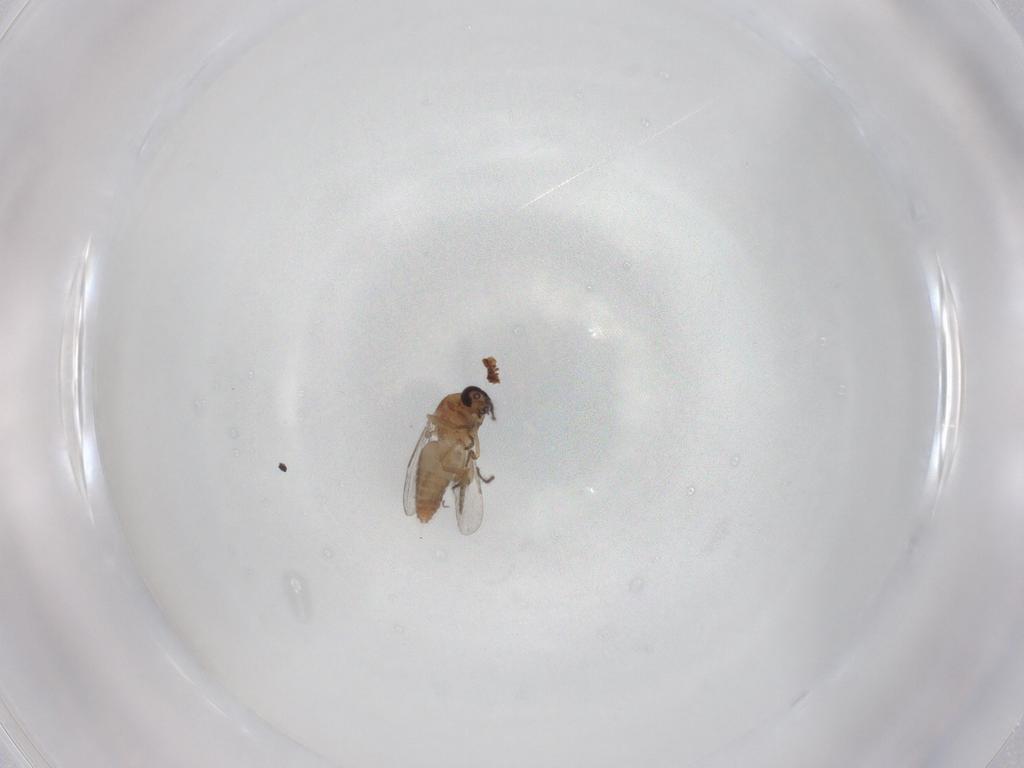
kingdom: Animalia
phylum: Arthropoda
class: Insecta
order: Diptera
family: Ceratopogonidae
